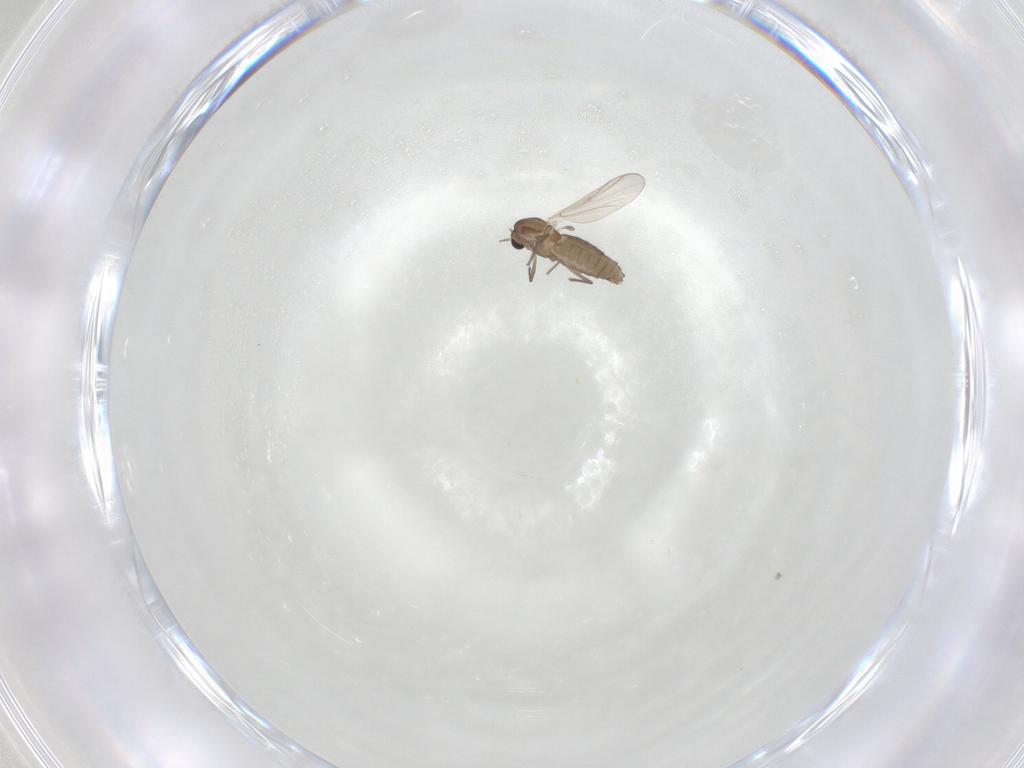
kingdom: Animalia
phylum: Arthropoda
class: Insecta
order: Diptera
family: Chironomidae
